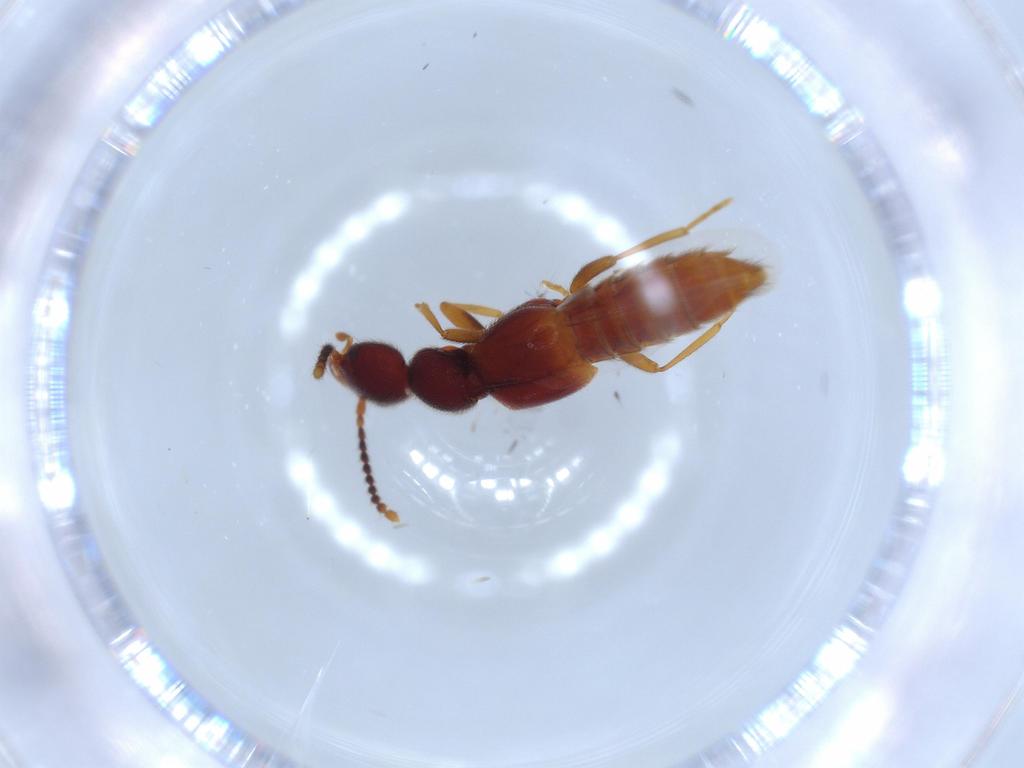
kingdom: Animalia
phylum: Arthropoda
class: Insecta
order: Coleoptera
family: Staphylinidae
